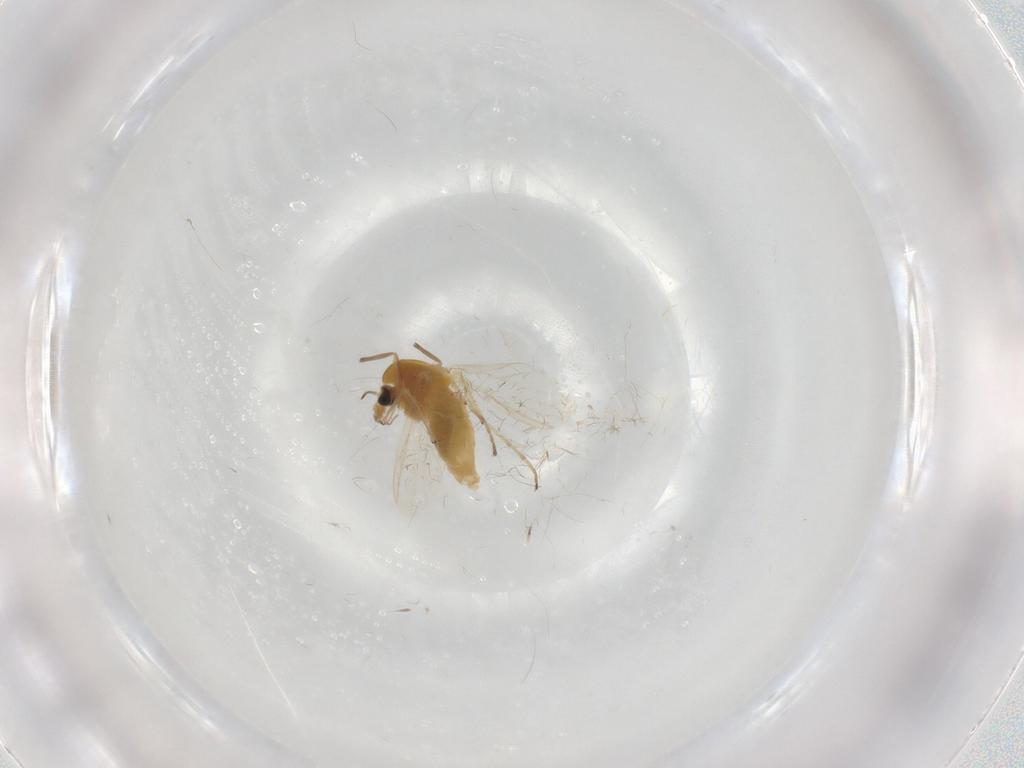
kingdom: Animalia
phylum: Arthropoda
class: Insecta
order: Diptera
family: Chironomidae
